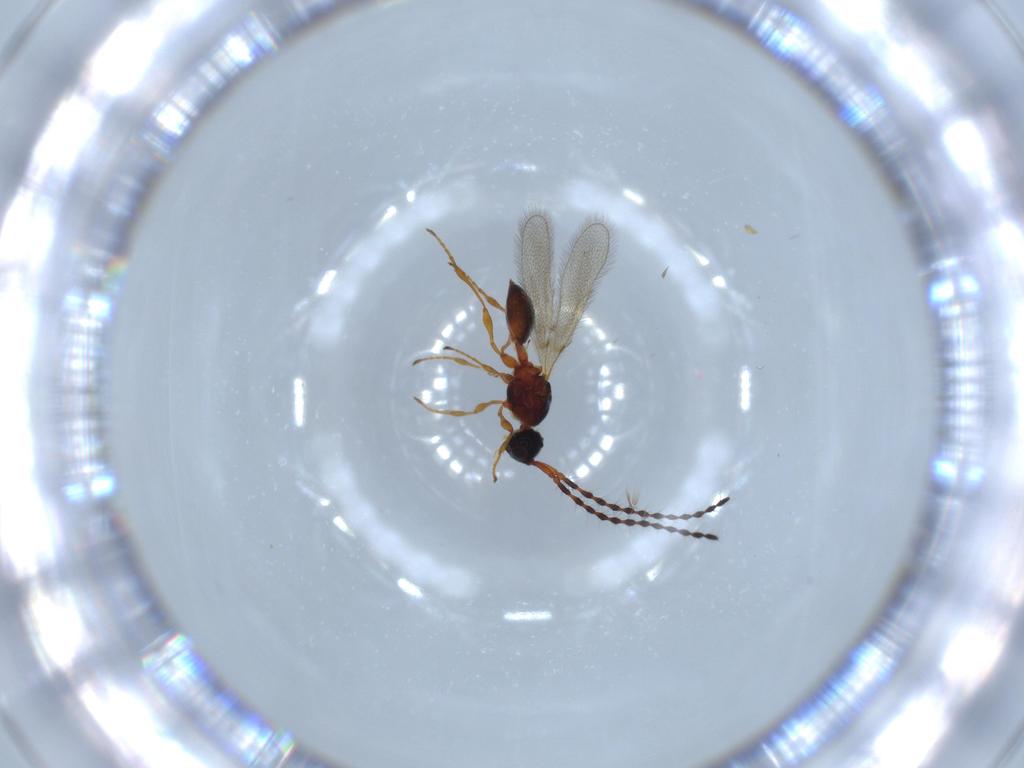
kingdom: Animalia
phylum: Arthropoda
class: Insecta
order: Hymenoptera
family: Diapriidae
